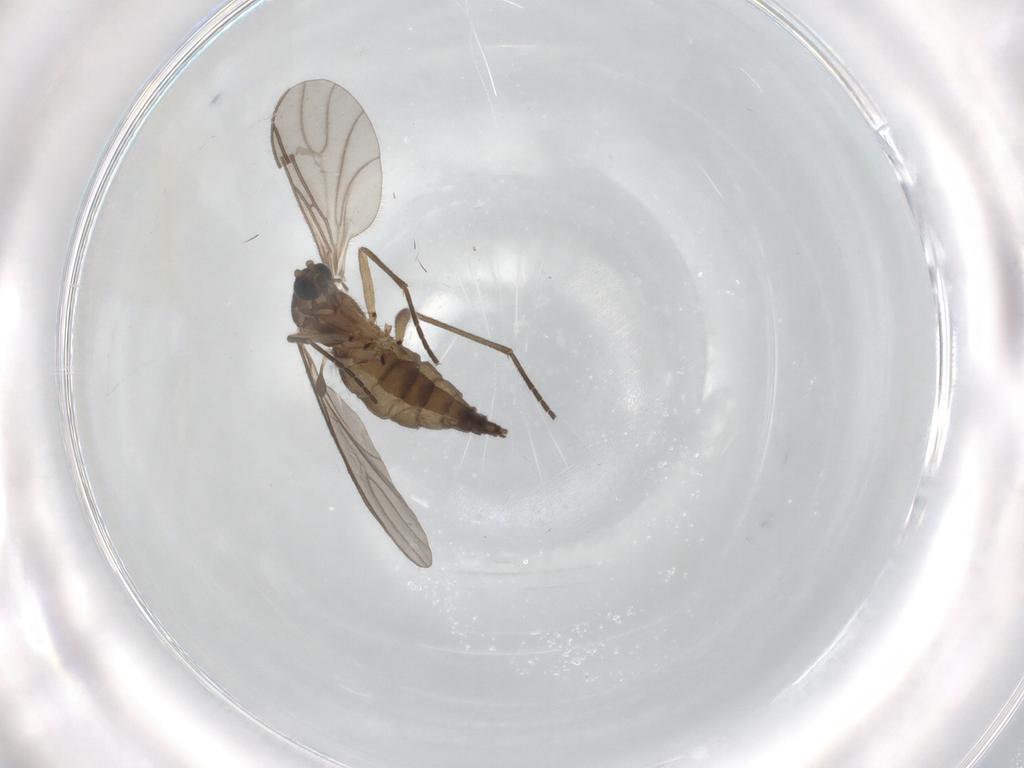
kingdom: Animalia
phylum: Arthropoda
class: Insecta
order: Diptera
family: Sciaridae
